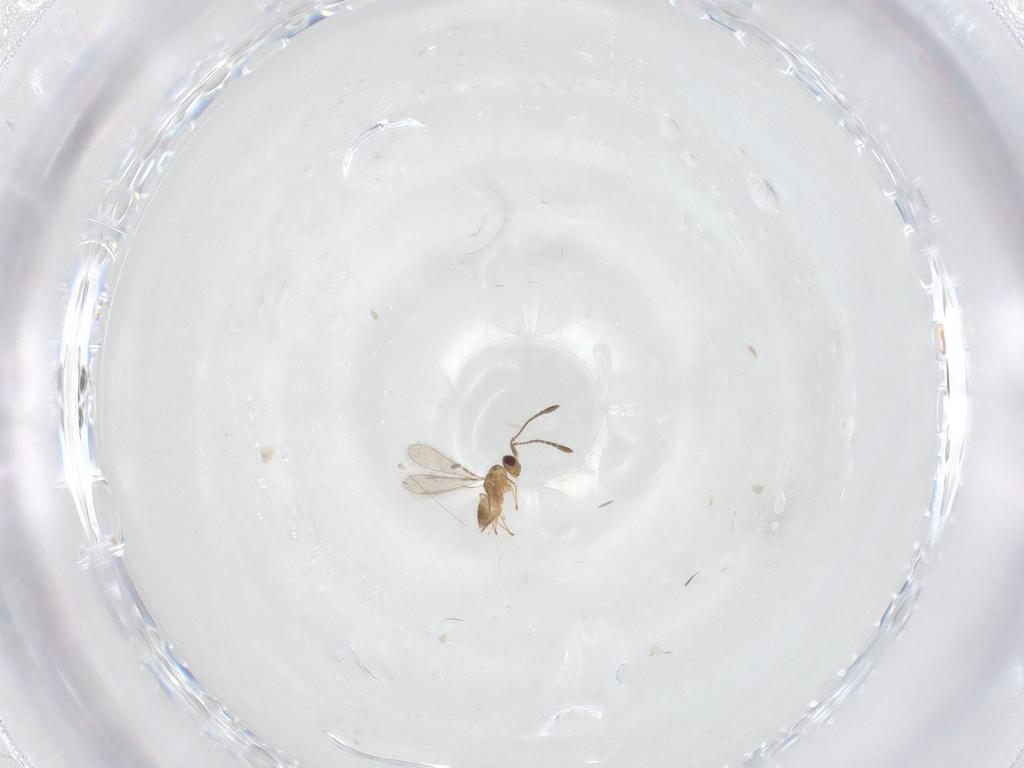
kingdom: Animalia
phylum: Arthropoda
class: Insecta
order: Hymenoptera
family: Mymaridae
